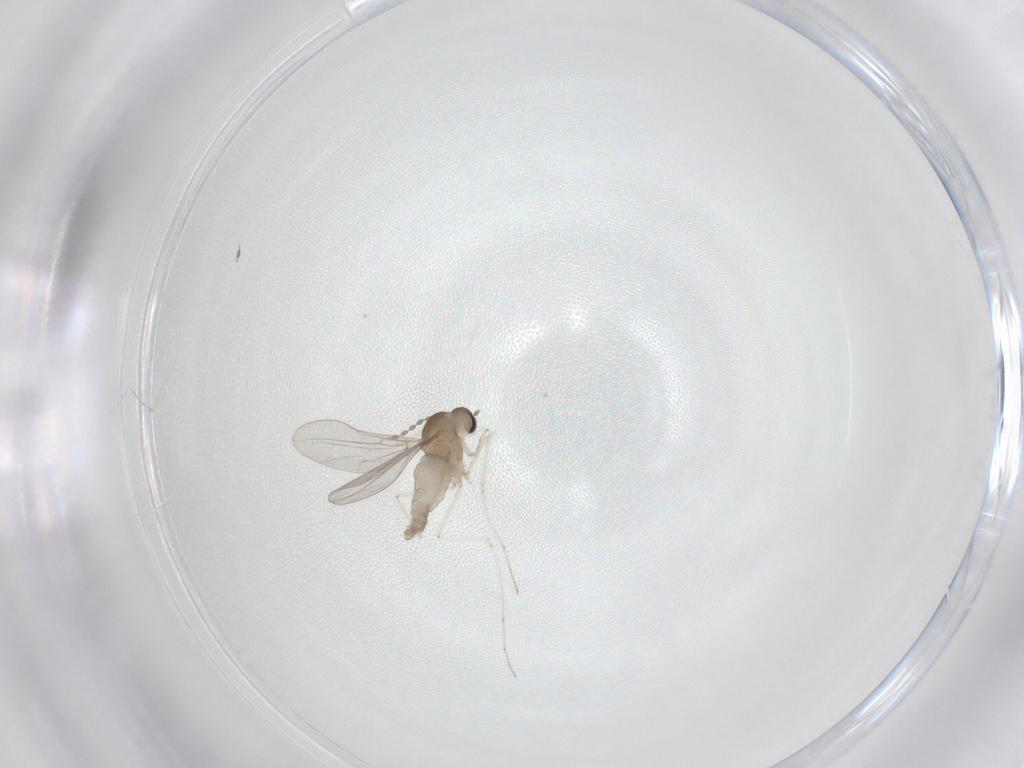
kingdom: Animalia
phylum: Arthropoda
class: Insecta
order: Diptera
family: Cecidomyiidae
